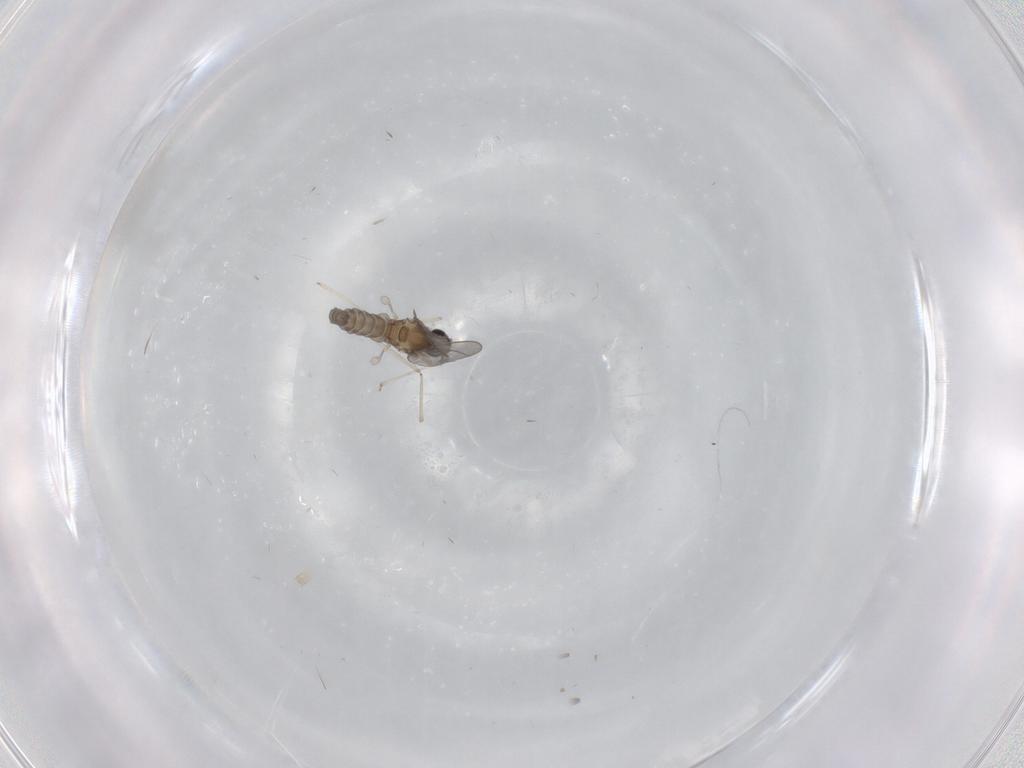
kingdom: Animalia
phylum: Arthropoda
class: Insecta
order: Diptera
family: Cecidomyiidae
